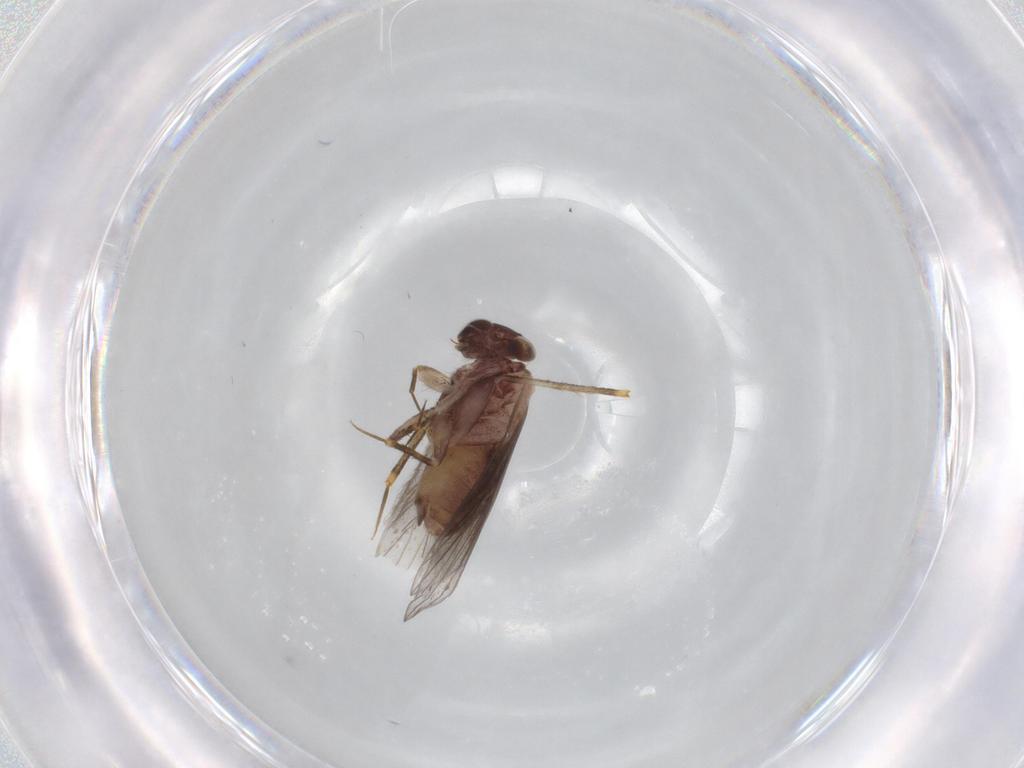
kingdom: Animalia
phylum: Arthropoda
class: Insecta
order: Psocodea
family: Lepidopsocidae
